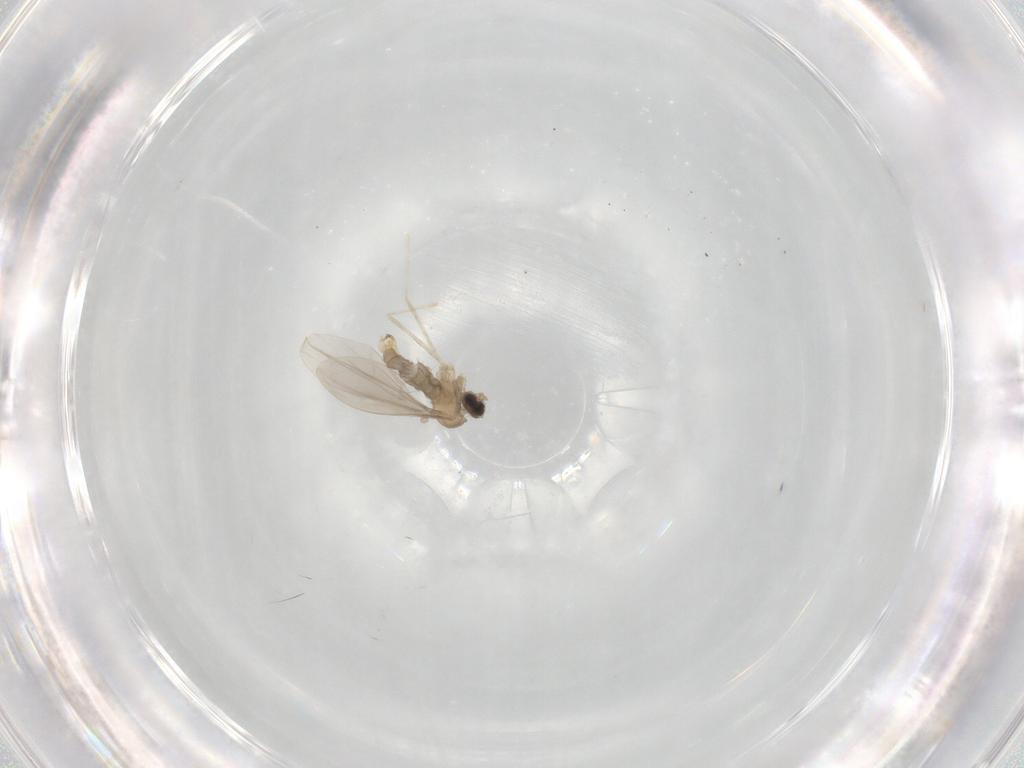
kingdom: Animalia
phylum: Arthropoda
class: Insecta
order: Diptera
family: Cecidomyiidae
